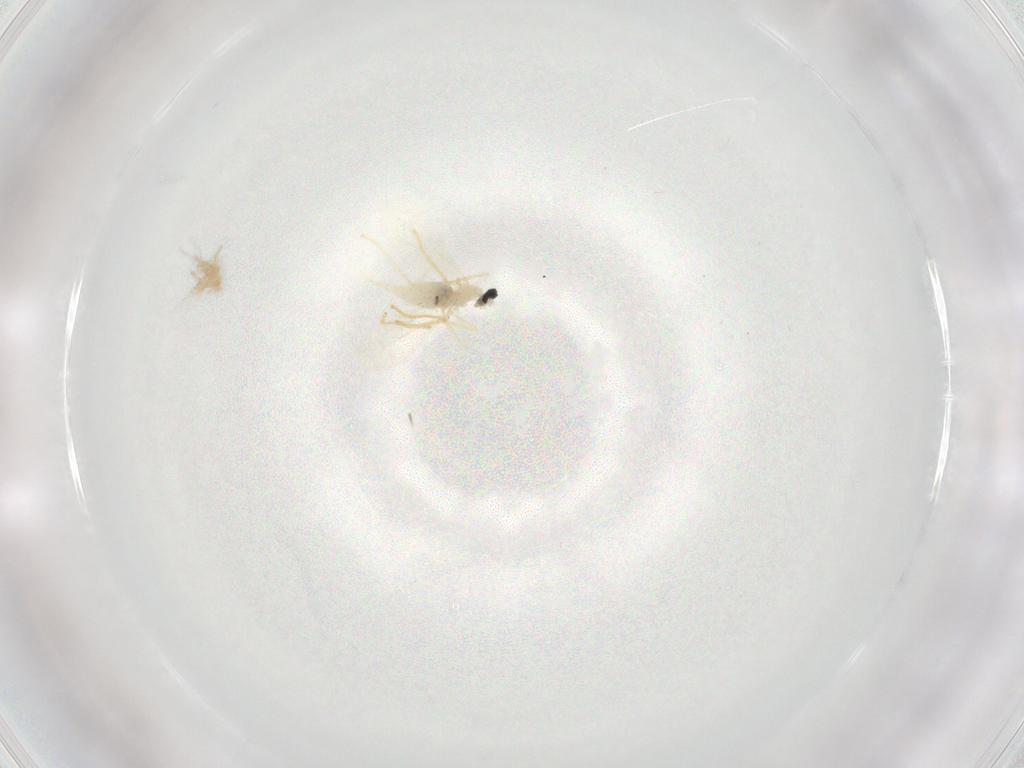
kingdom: Animalia
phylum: Arthropoda
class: Insecta
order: Diptera
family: Cecidomyiidae
